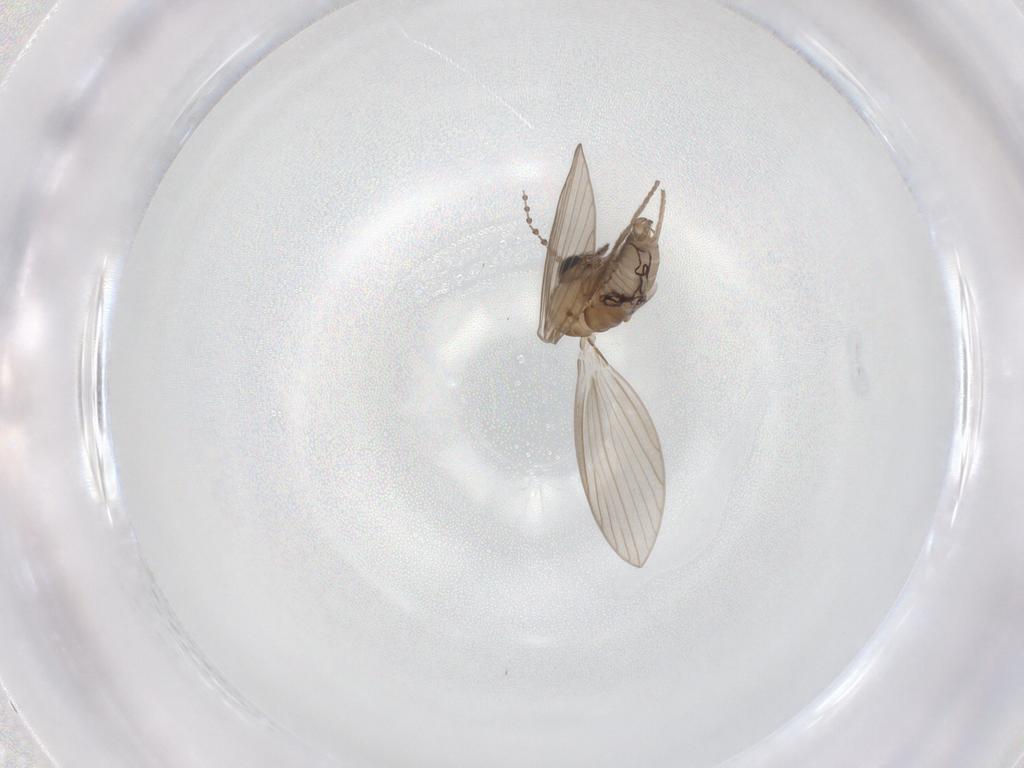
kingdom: Animalia
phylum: Arthropoda
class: Insecta
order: Diptera
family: Psychodidae
